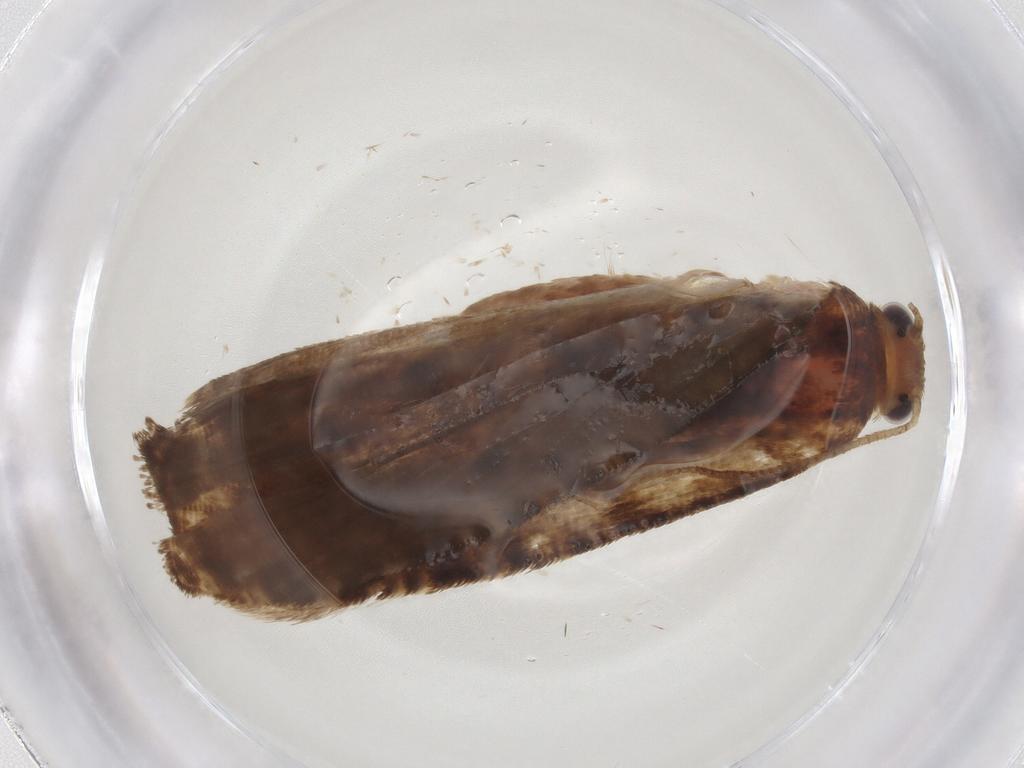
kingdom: Animalia
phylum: Arthropoda
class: Insecta
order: Lepidoptera
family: Tortricidae
